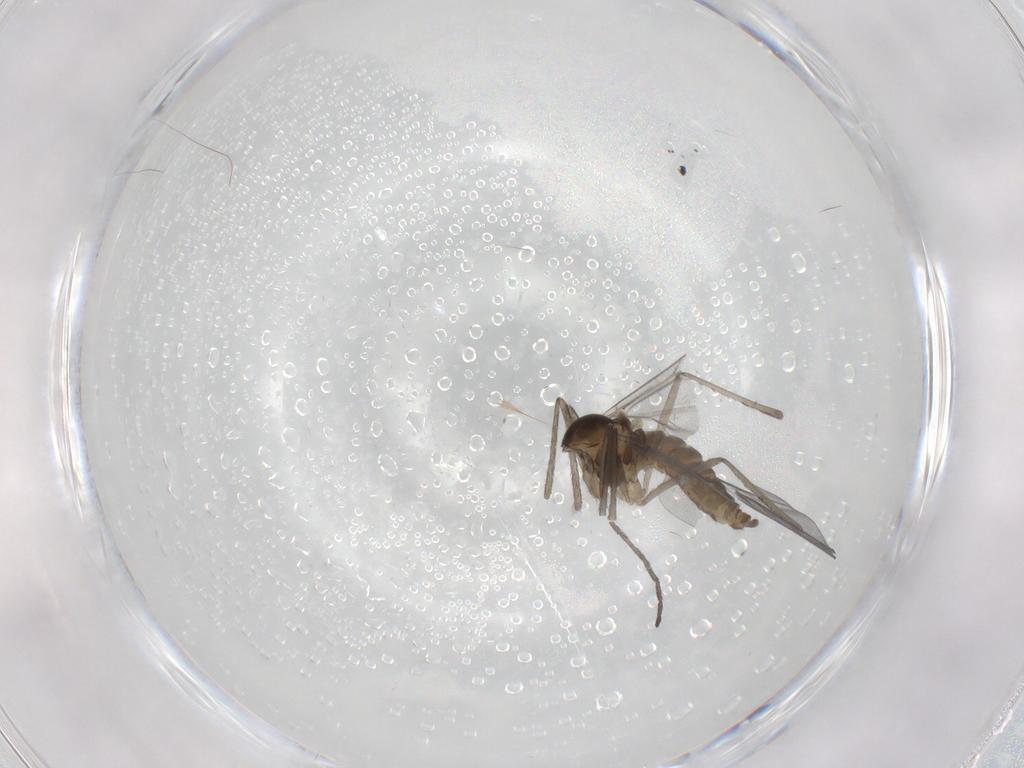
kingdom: Animalia
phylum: Arthropoda
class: Insecta
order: Diptera
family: Cecidomyiidae
